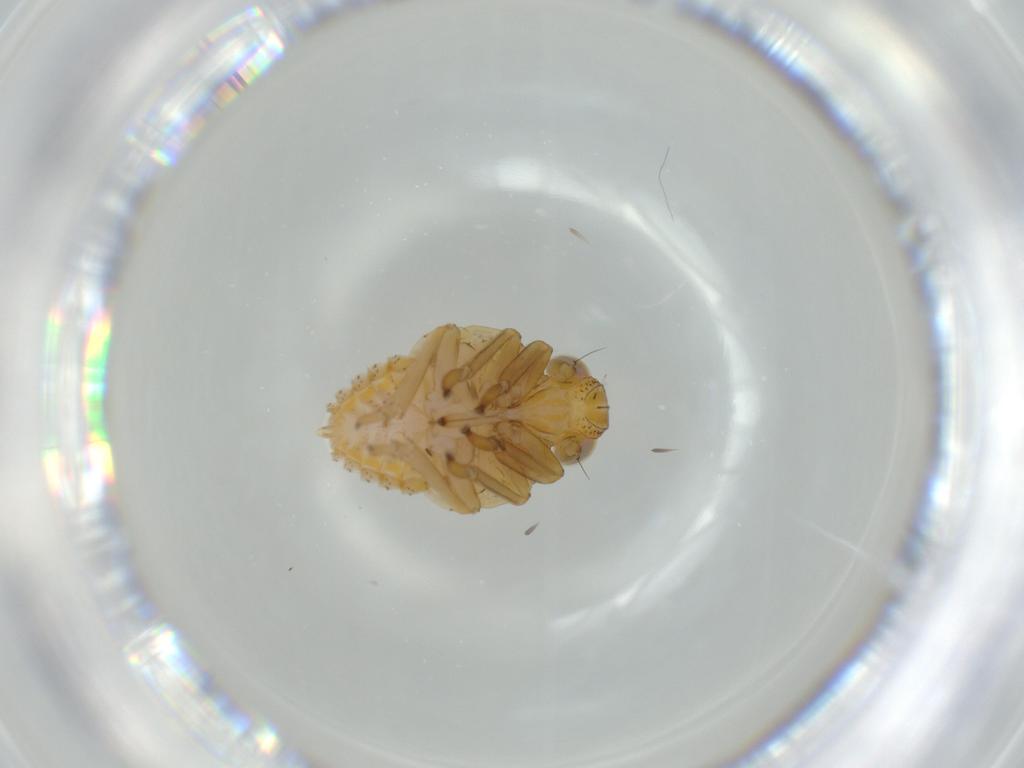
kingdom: Animalia
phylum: Arthropoda
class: Insecta
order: Hemiptera
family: Issidae
